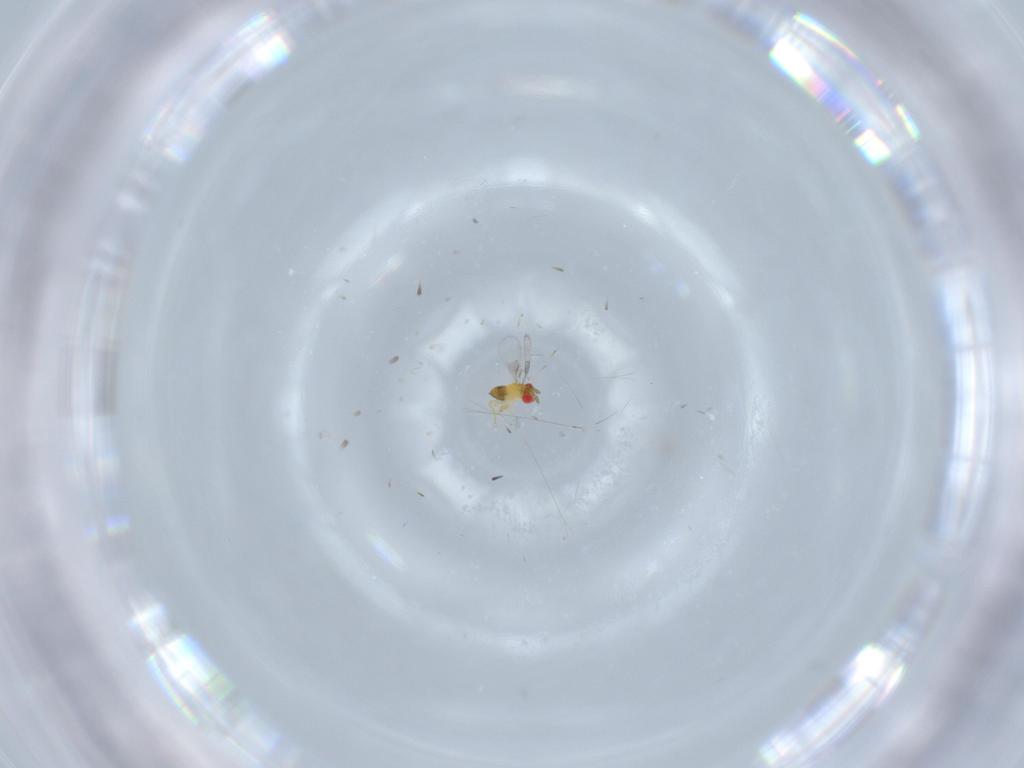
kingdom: Animalia
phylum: Arthropoda
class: Insecta
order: Hymenoptera
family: Trichogrammatidae
